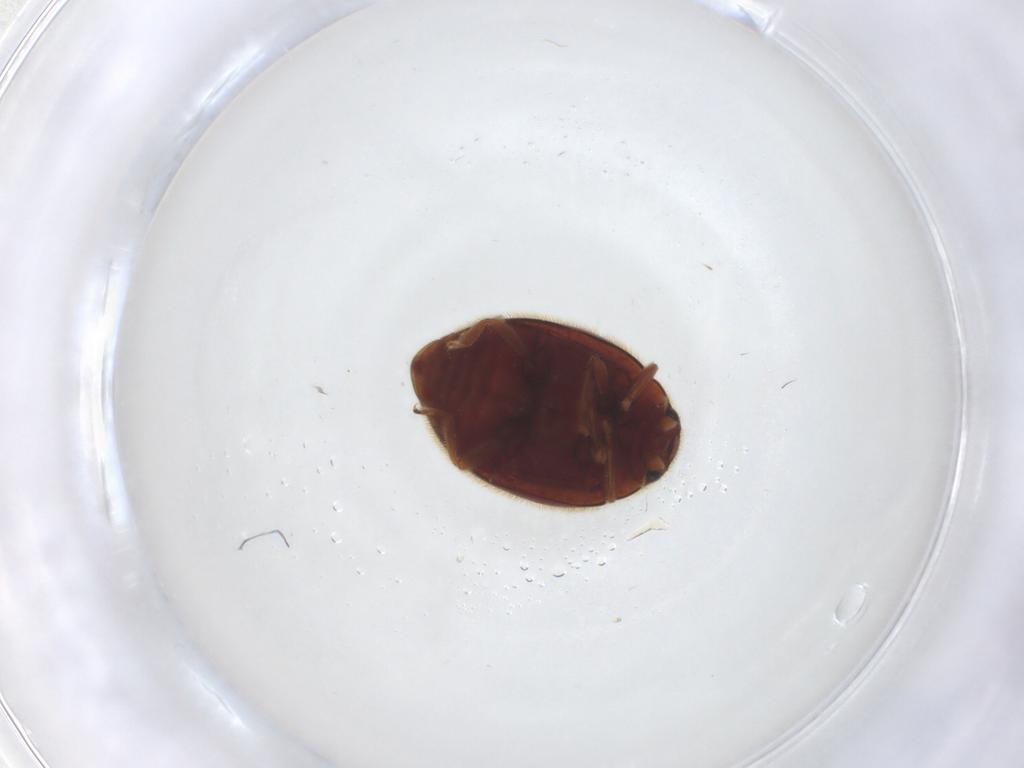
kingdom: Animalia
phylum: Arthropoda
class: Insecta
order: Coleoptera
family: Coccinellidae
